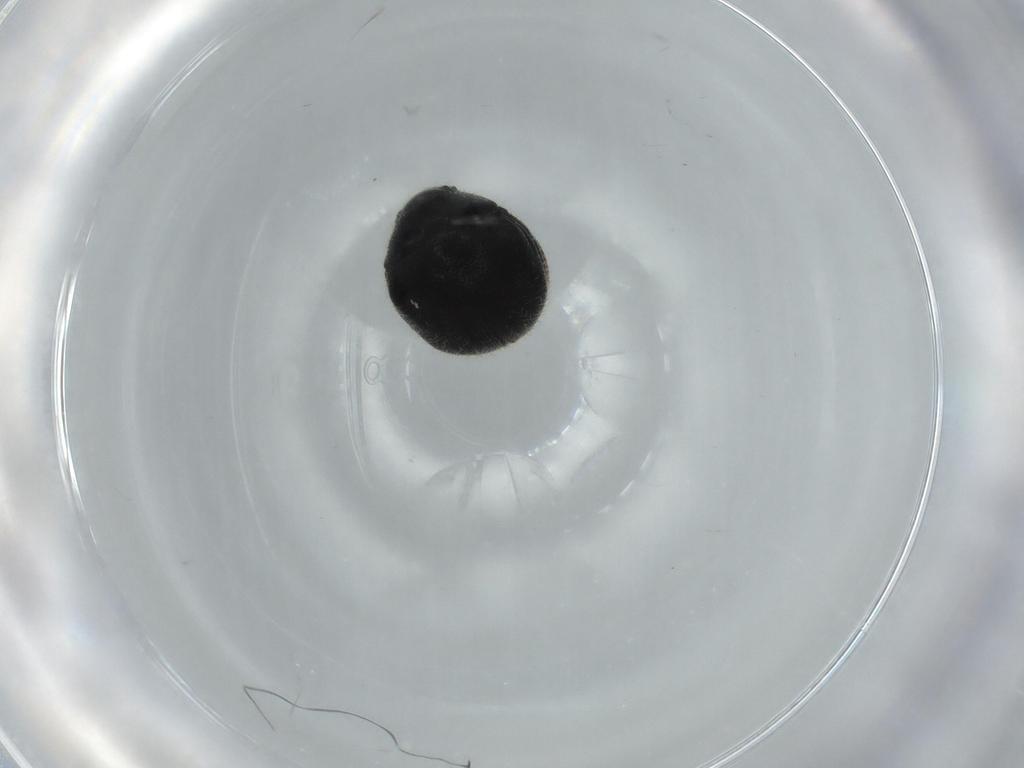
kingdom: Animalia
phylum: Arthropoda
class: Insecta
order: Coleoptera
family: Ptinidae
